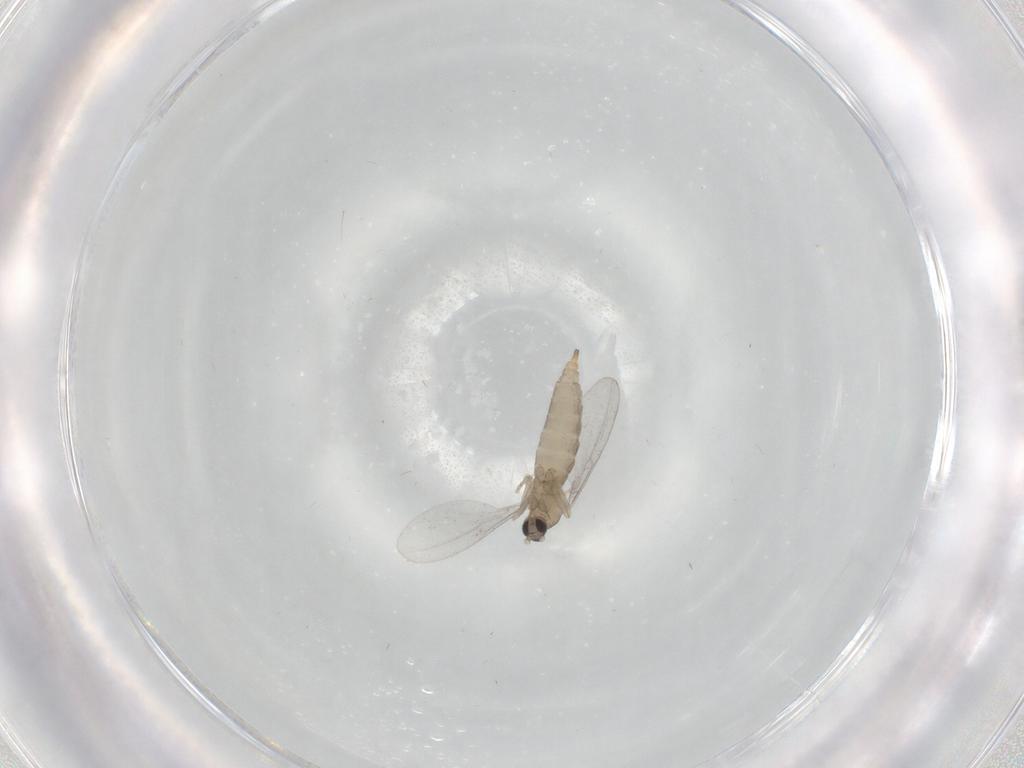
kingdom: Animalia
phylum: Arthropoda
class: Insecta
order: Diptera
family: Cecidomyiidae
